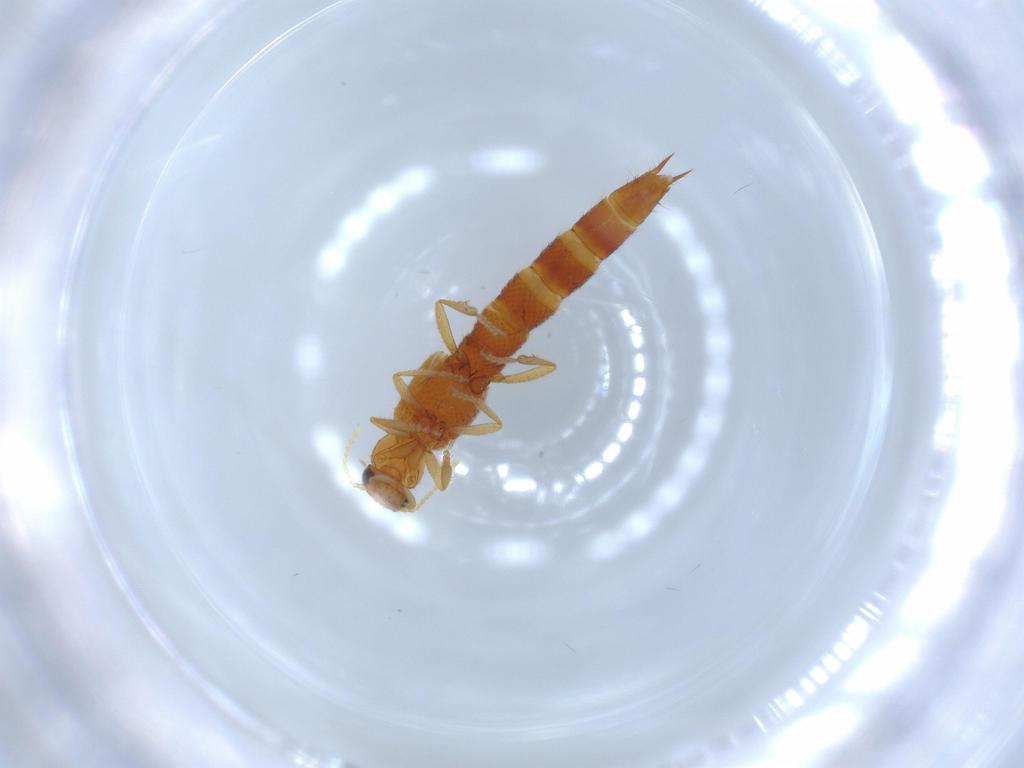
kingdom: Animalia
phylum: Arthropoda
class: Insecta
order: Coleoptera
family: Staphylinidae
